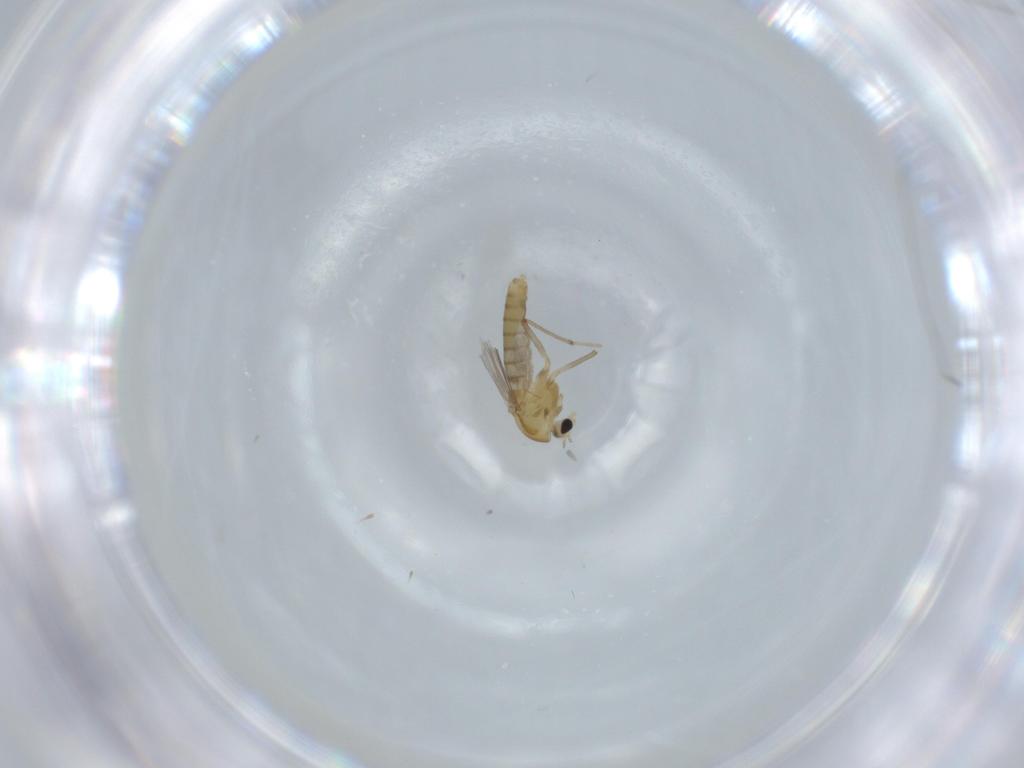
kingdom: Animalia
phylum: Arthropoda
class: Insecta
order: Diptera
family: Chironomidae
